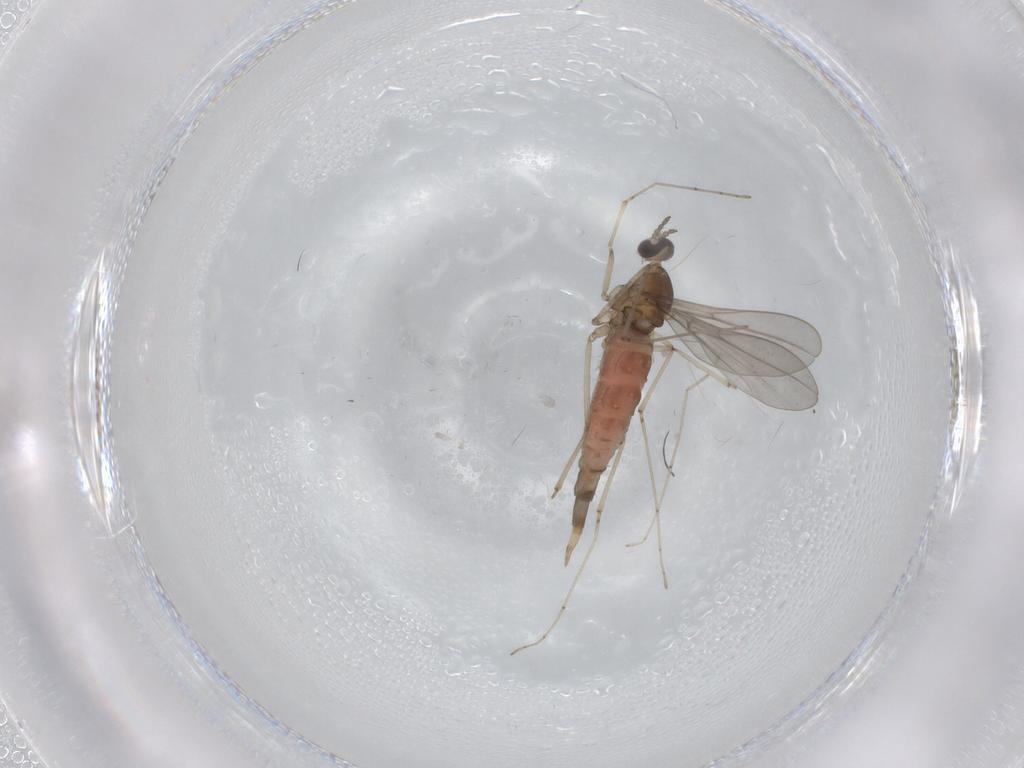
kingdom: Animalia
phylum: Arthropoda
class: Insecta
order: Diptera
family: Cecidomyiidae
